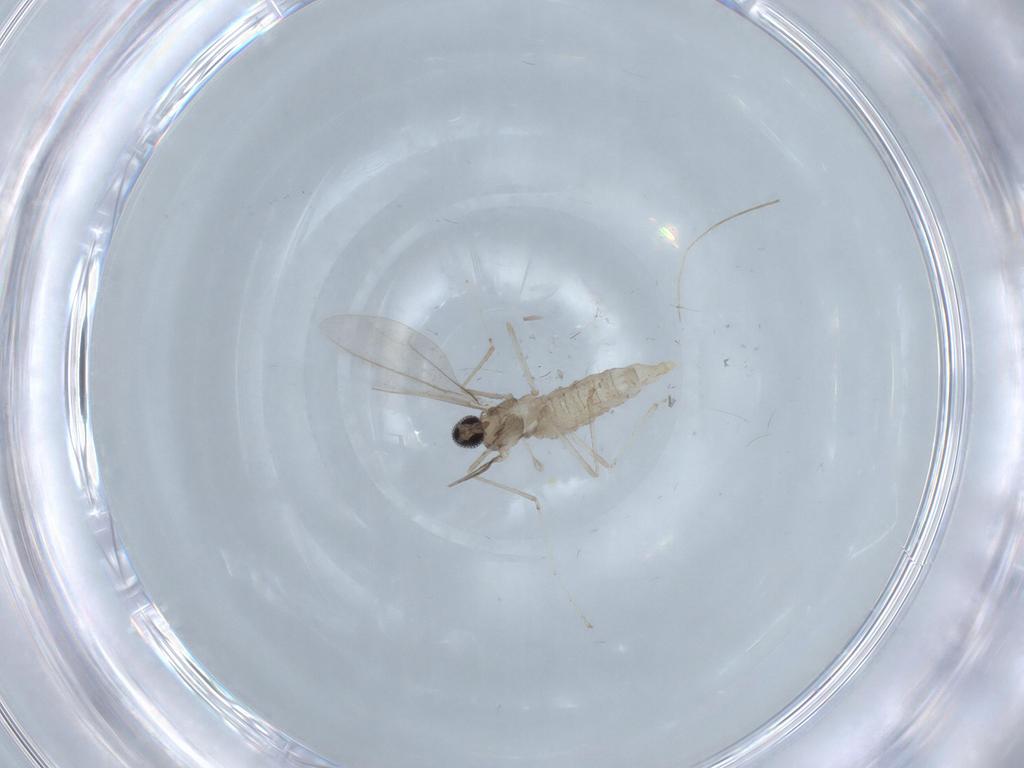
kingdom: Animalia
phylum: Arthropoda
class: Insecta
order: Diptera
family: Cecidomyiidae
